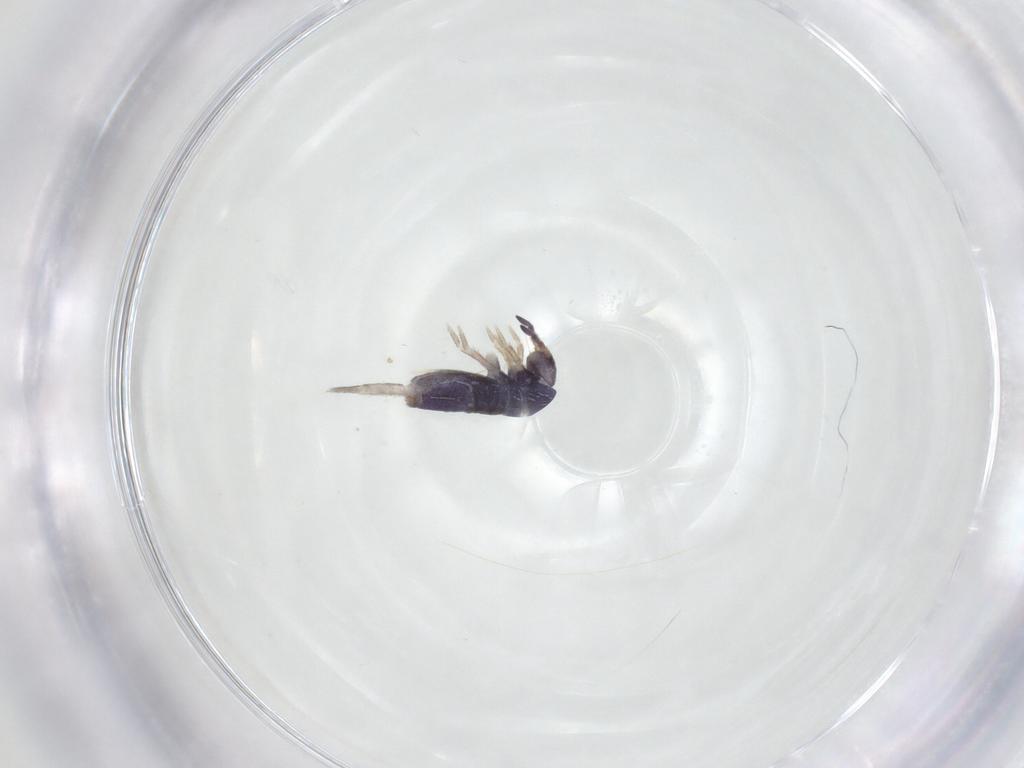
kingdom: Animalia
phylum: Arthropoda
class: Collembola
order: Entomobryomorpha
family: Entomobryidae
